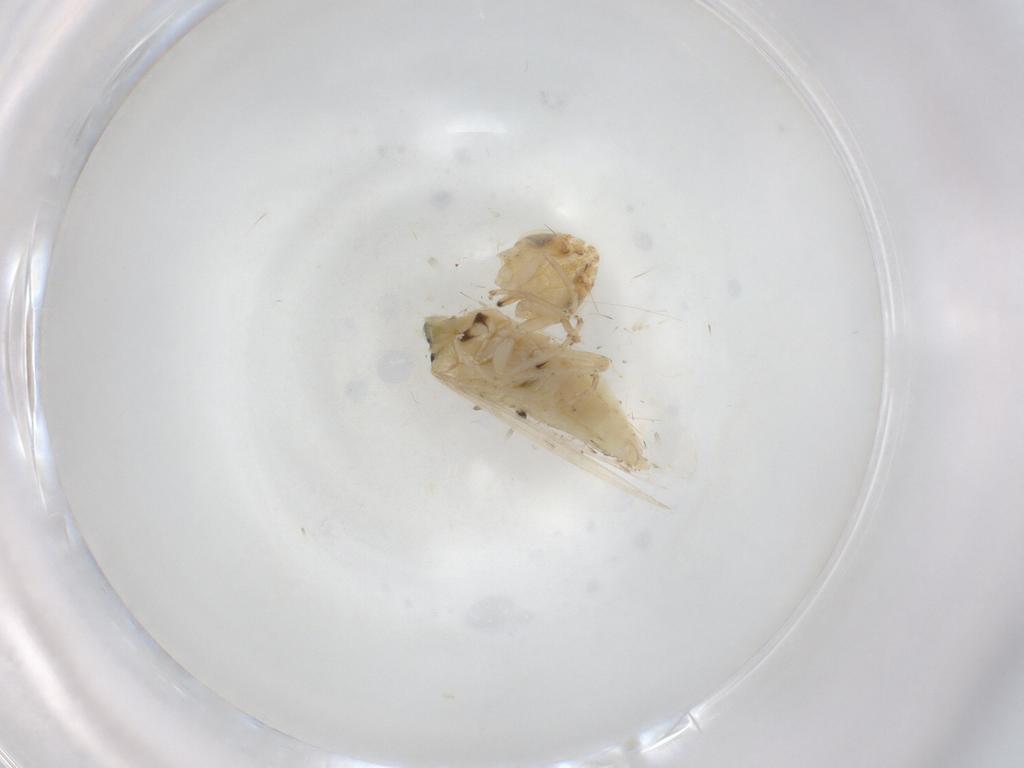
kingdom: Animalia
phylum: Arthropoda
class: Insecta
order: Hemiptera
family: Cicadellidae
